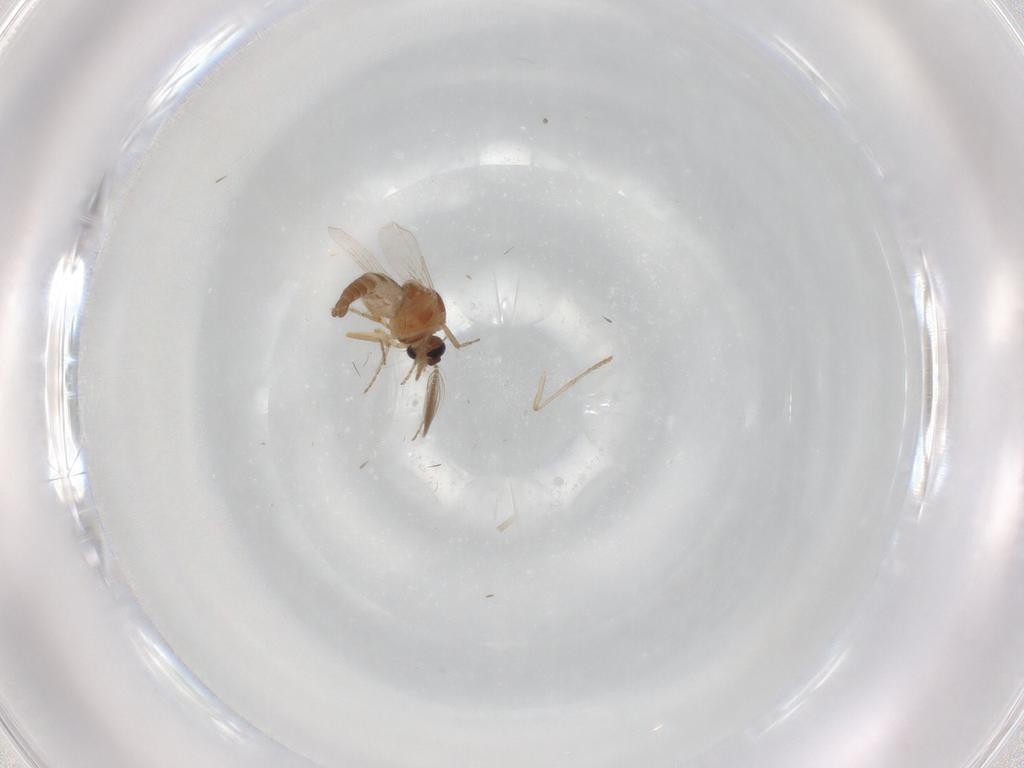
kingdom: Animalia
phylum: Arthropoda
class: Insecta
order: Diptera
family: Ceratopogonidae
